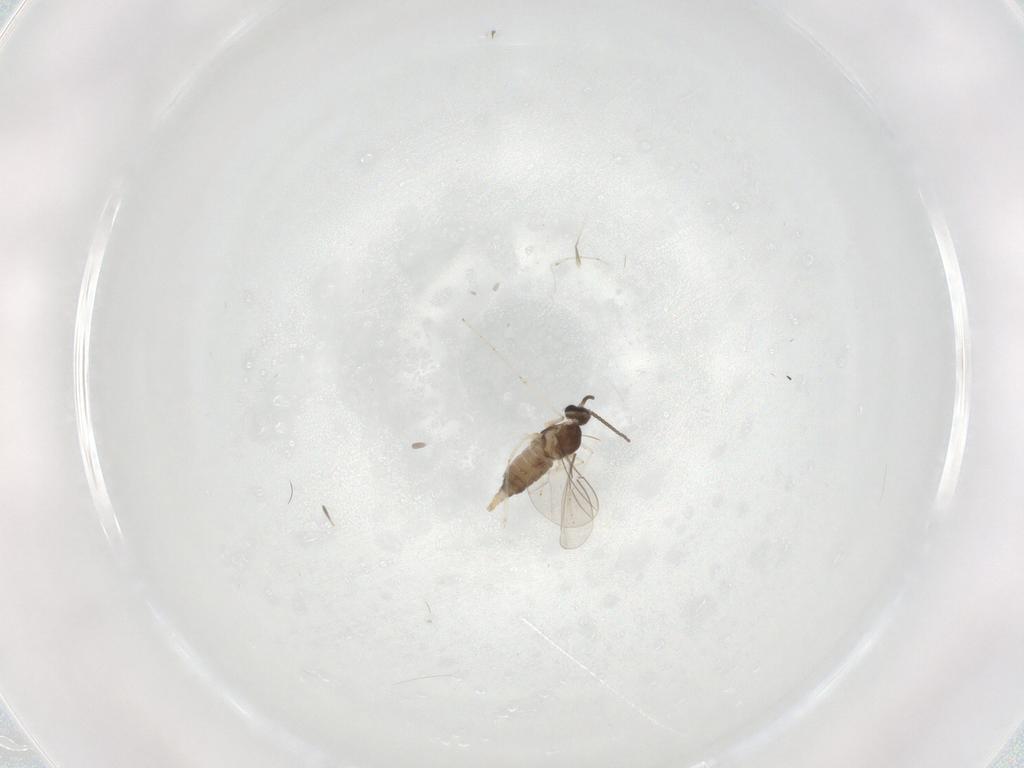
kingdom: Animalia
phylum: Arthropoda
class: Insecta
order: Diptera
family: Cecidomyiidae
